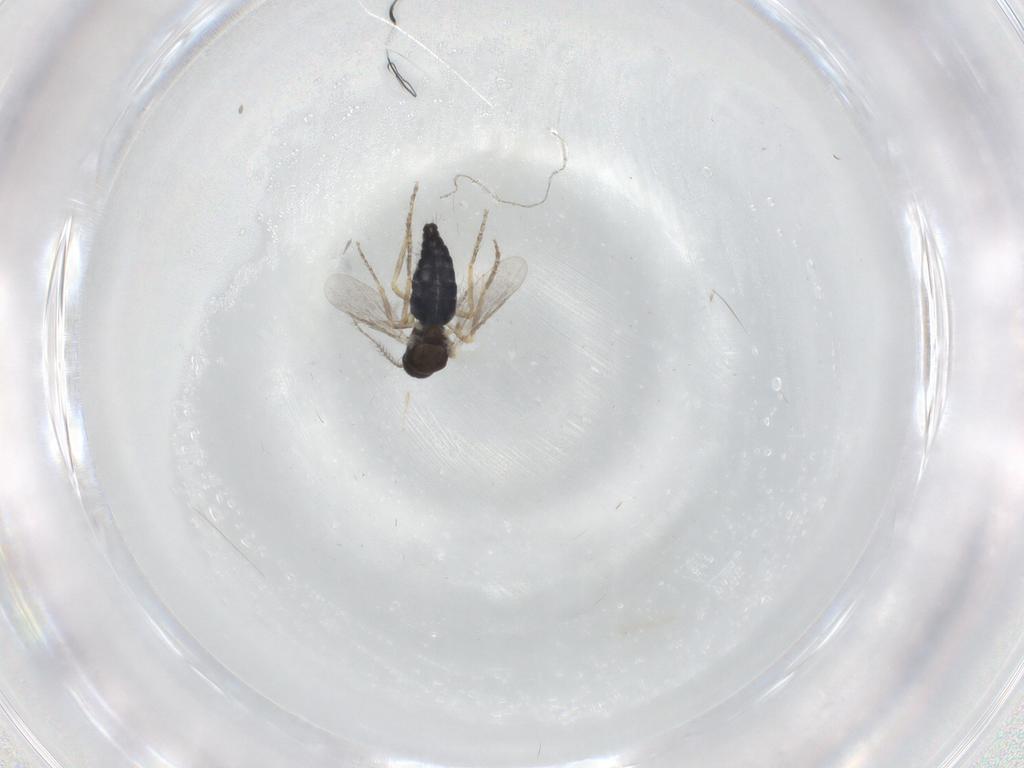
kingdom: Animalia
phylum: Arthropoda
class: Insecta
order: Diptera
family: Ceratopogonidae
